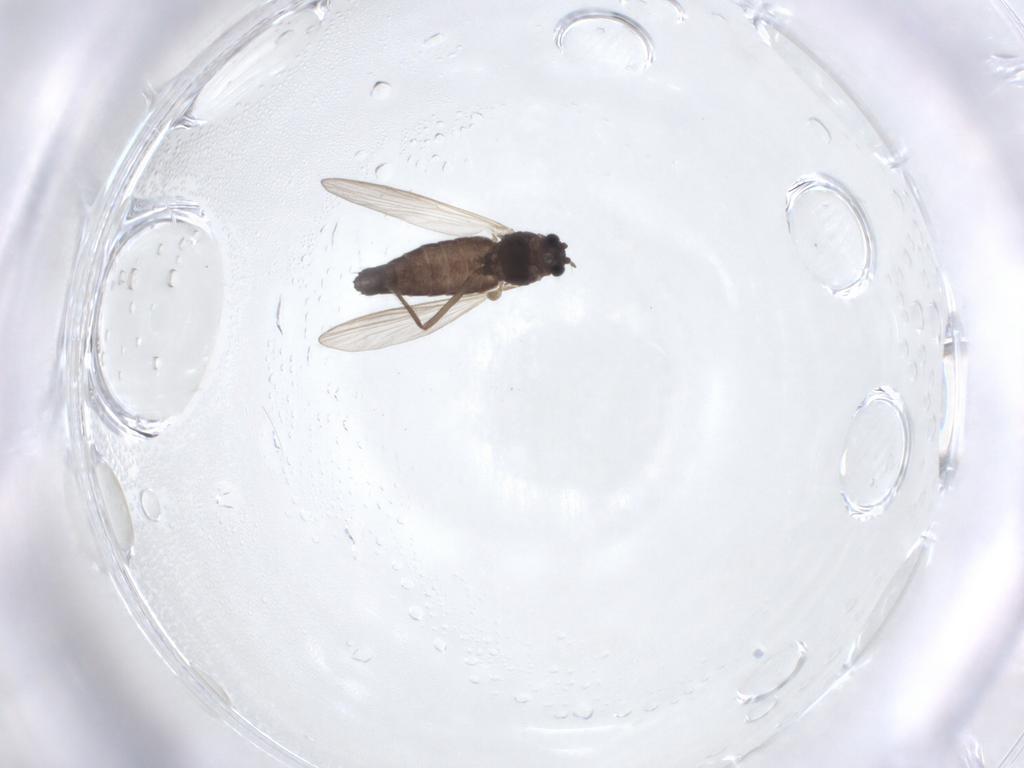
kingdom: Animalia
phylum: Arthropoda
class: Insecta
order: Diptera
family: Chironomidae
